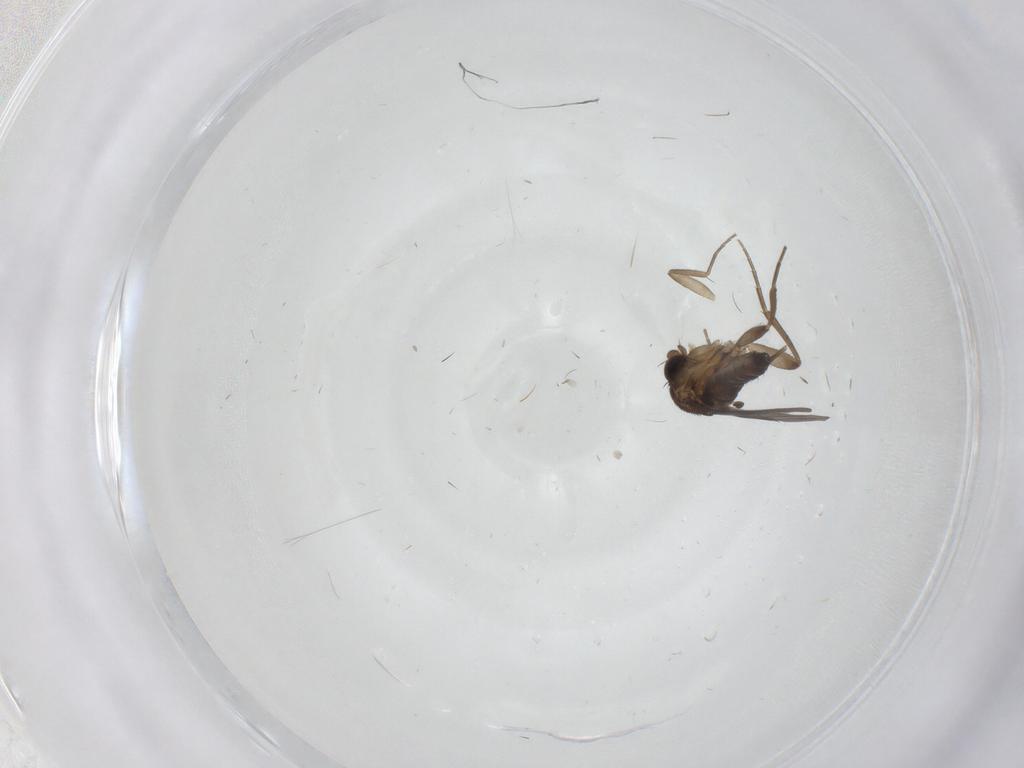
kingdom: Animalia
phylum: Arthropoda
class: Insecta
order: Diptera
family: Phoridae
